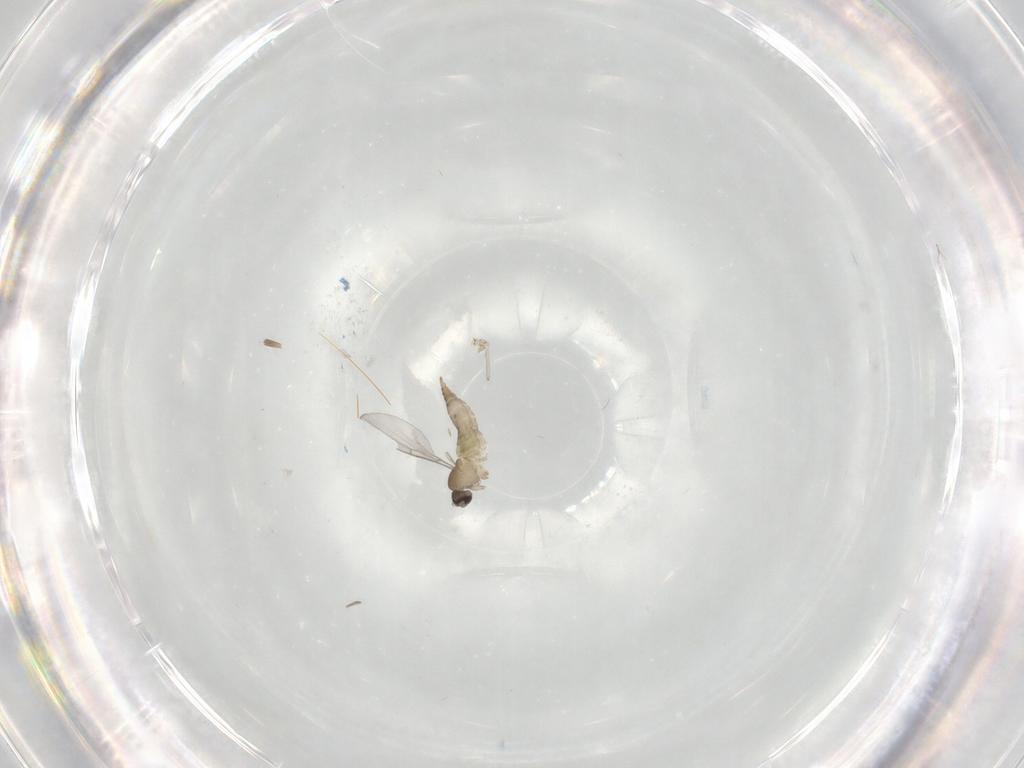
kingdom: Animalia
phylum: Arthropoda
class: Insecta
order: Diptera
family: Cecidomyiidae
